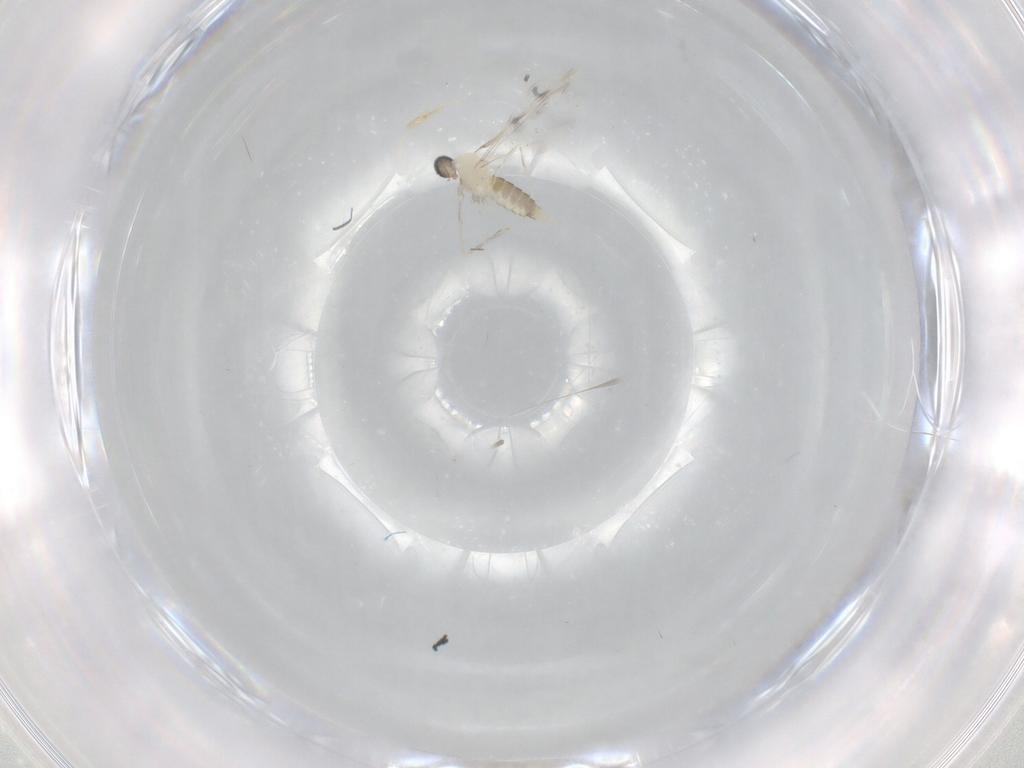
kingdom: Animalia
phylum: Arthropoda
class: Insecta
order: Diptera
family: Cecidomyiidae
